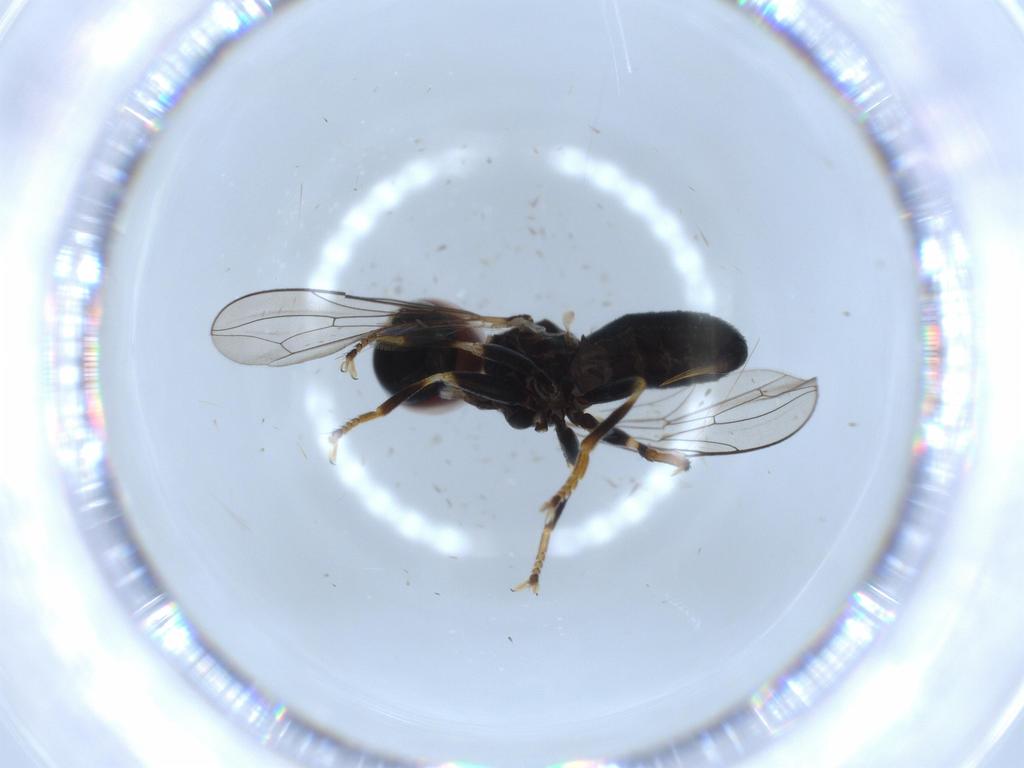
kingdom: Animalia
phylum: Arthropoda
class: Insecta
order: Diptera
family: Pipunculidae
